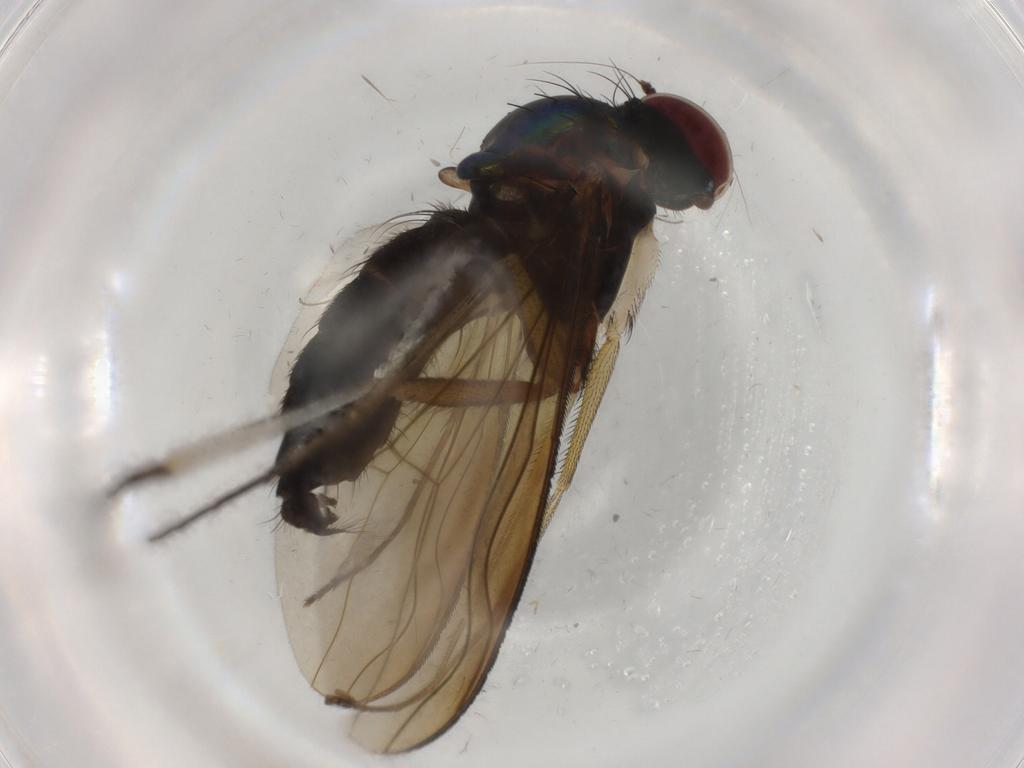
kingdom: Animalia
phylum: Arthropoda
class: Insecta
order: Diptera
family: Dolichopodidae
